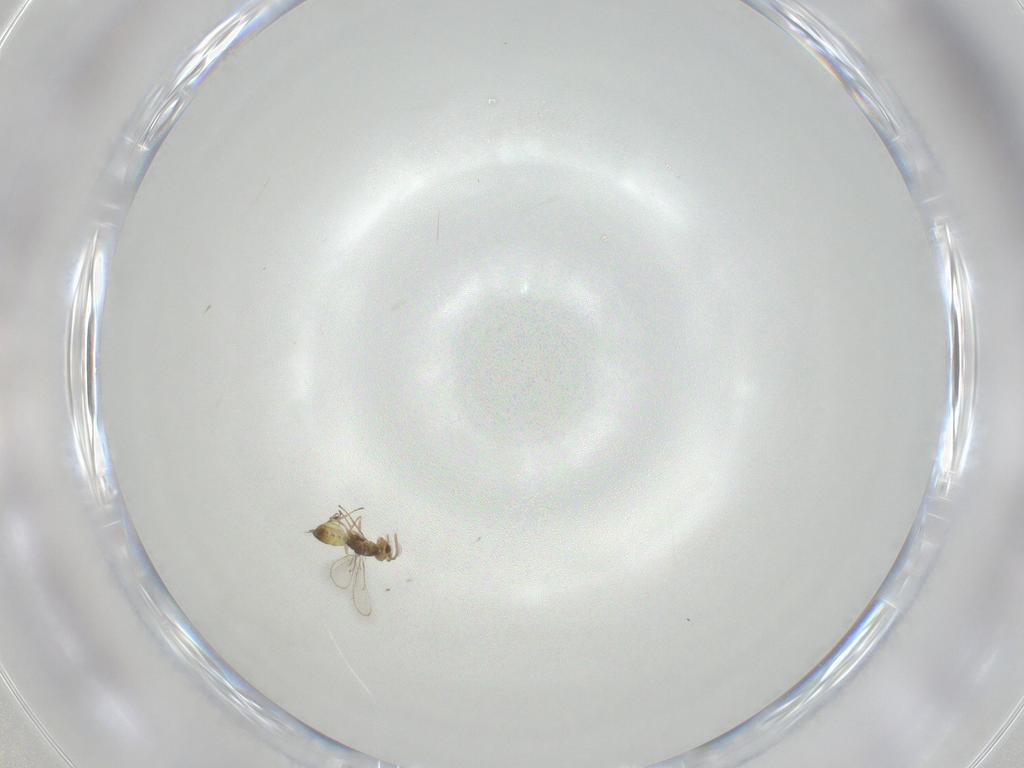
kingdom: Animalia
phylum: Arthropoda
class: Insecta
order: Hymenoptera
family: Eulophidae
